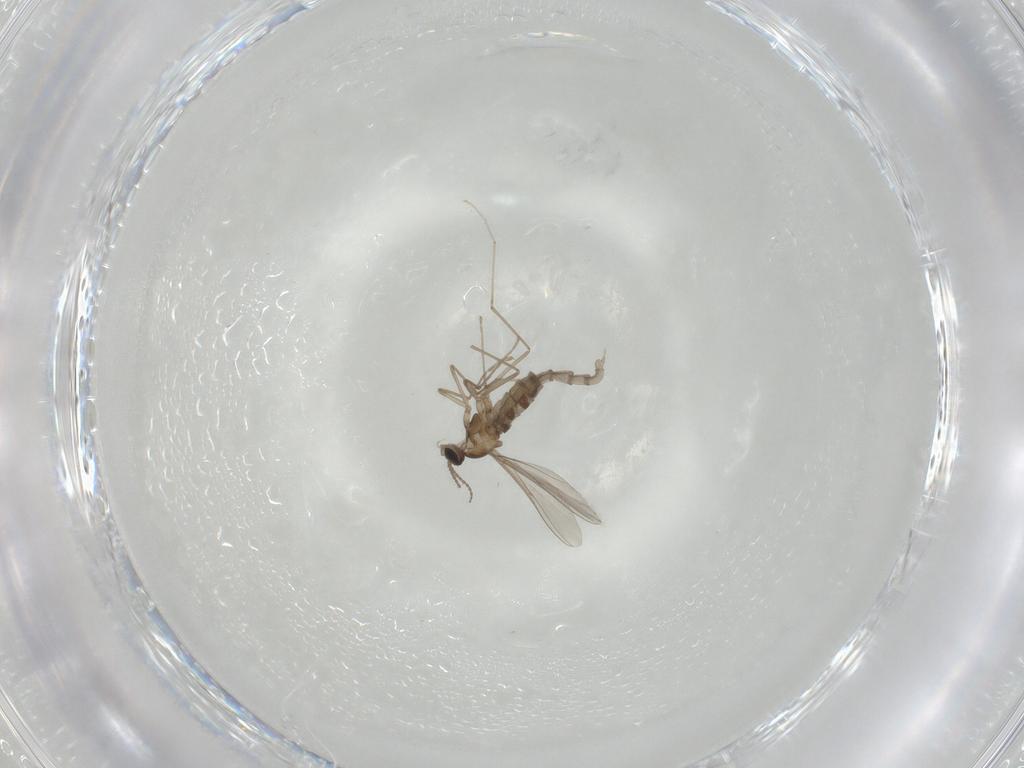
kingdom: Animalia
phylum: Arthropoda
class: Insecta
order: Diptera
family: Cecidomyiidae
